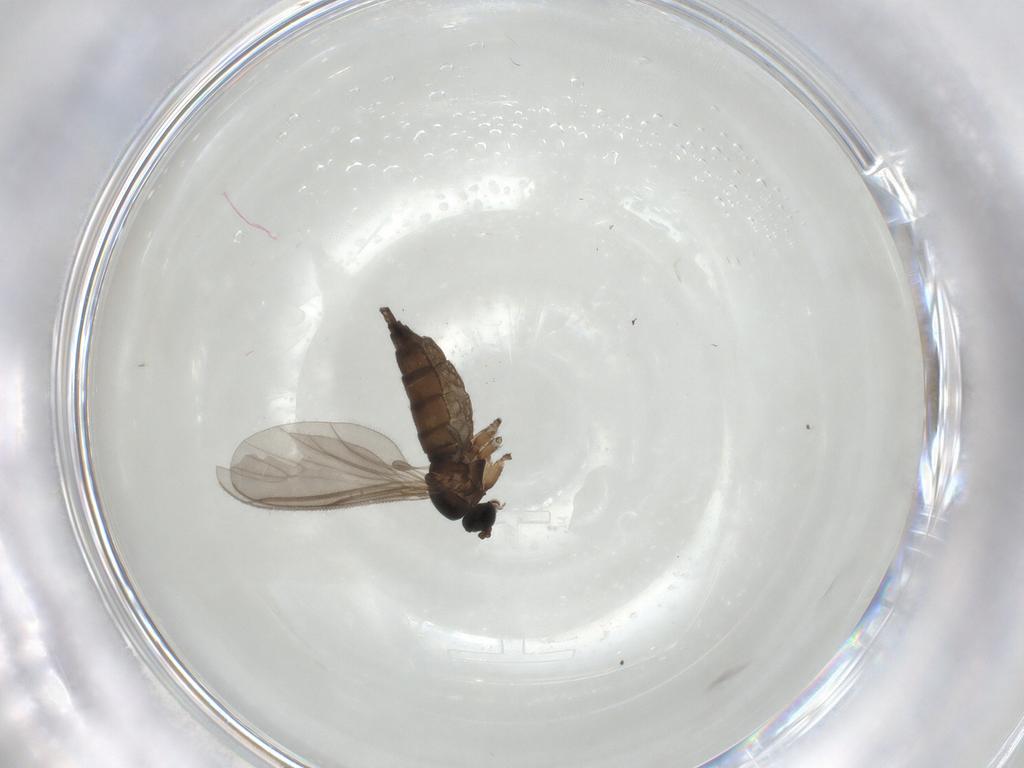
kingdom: Animalia
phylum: Arthropoda
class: Insecta
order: Diptera
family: Sciaridae
